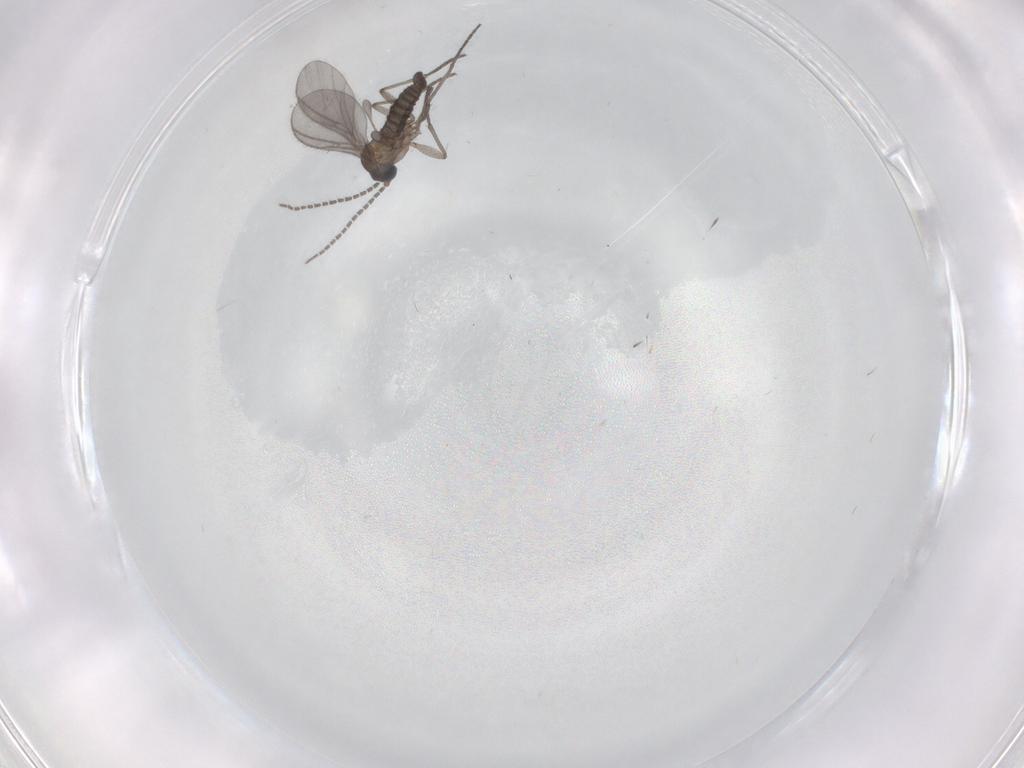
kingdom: Animalia
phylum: Arthropoda
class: Insecta
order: Diptera
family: Sciaridae
